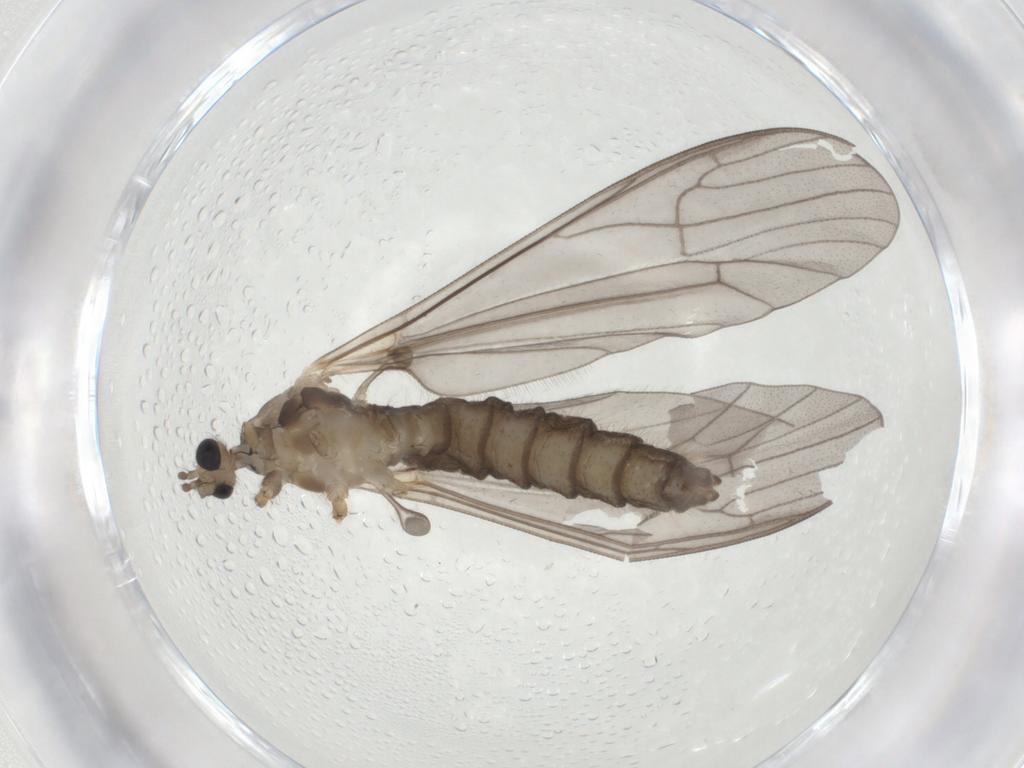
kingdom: Animalia
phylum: Arthropoda
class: Insecta
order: Diptera
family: Limoniidae
